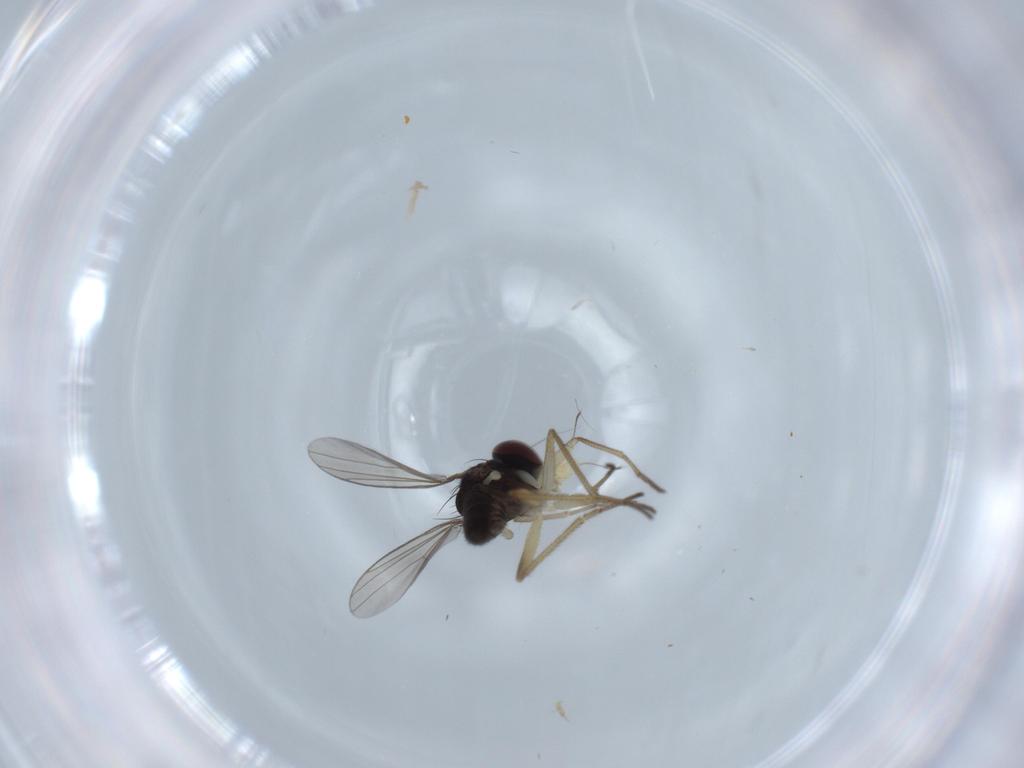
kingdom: Animalia
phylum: Arthropoda
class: Insecta
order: Diptera
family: Dolichopodidae
